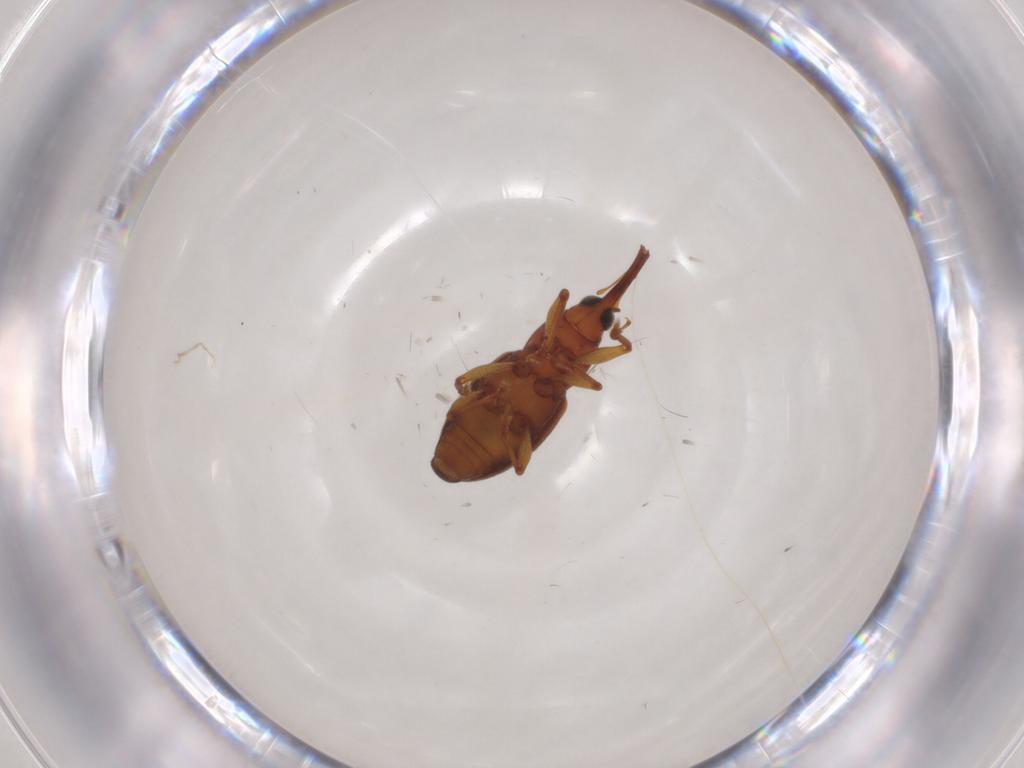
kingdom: Animalia
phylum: Arthropoda
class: Insecta
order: Coleoptera
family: Curculionidae
